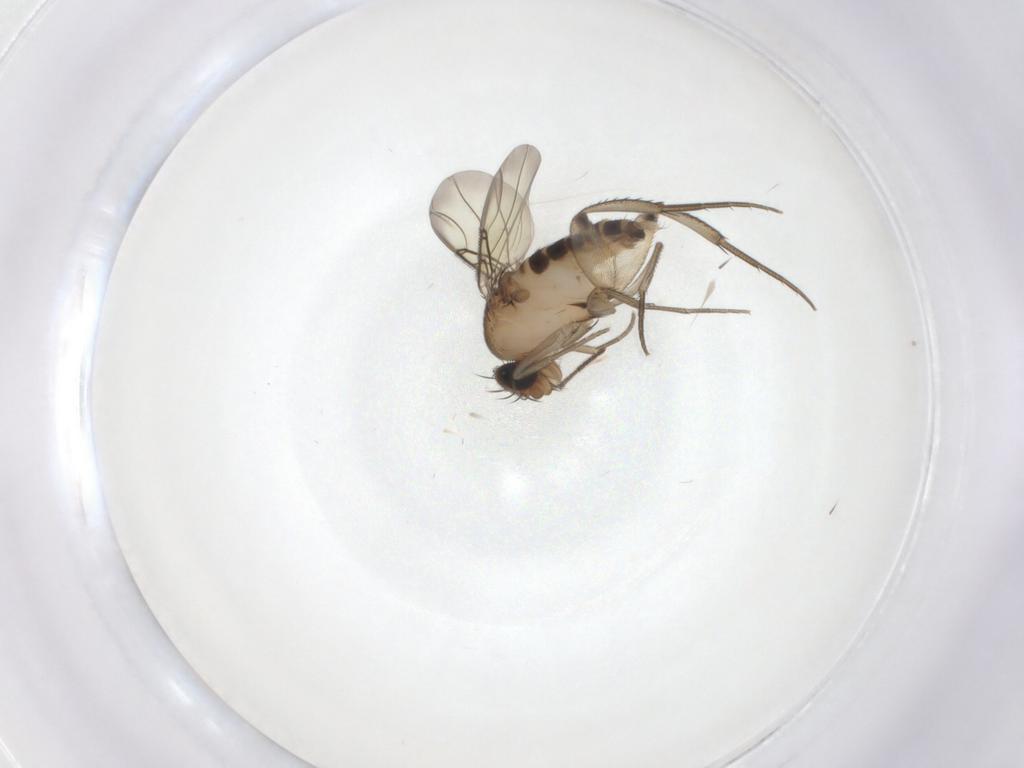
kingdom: Animalia
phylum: Arthropoda
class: Insecta
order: Diptera
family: Phoridae
